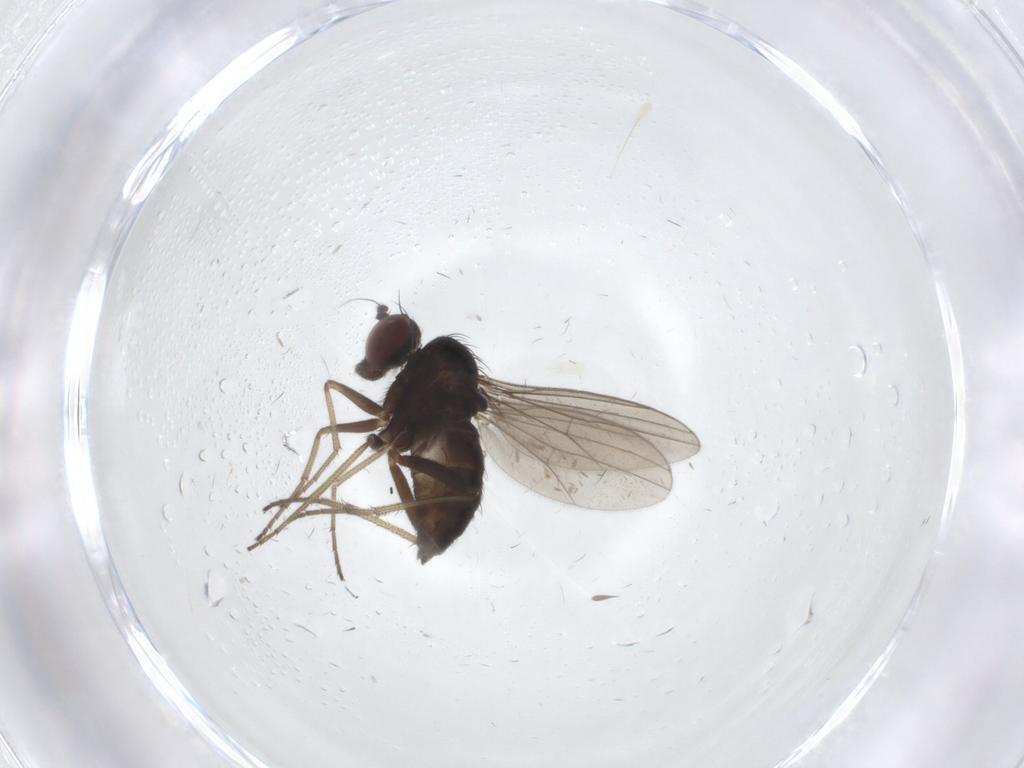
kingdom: Animalia
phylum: Arthropoda
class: Insecta
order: Diptera
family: Dolichopodidae
